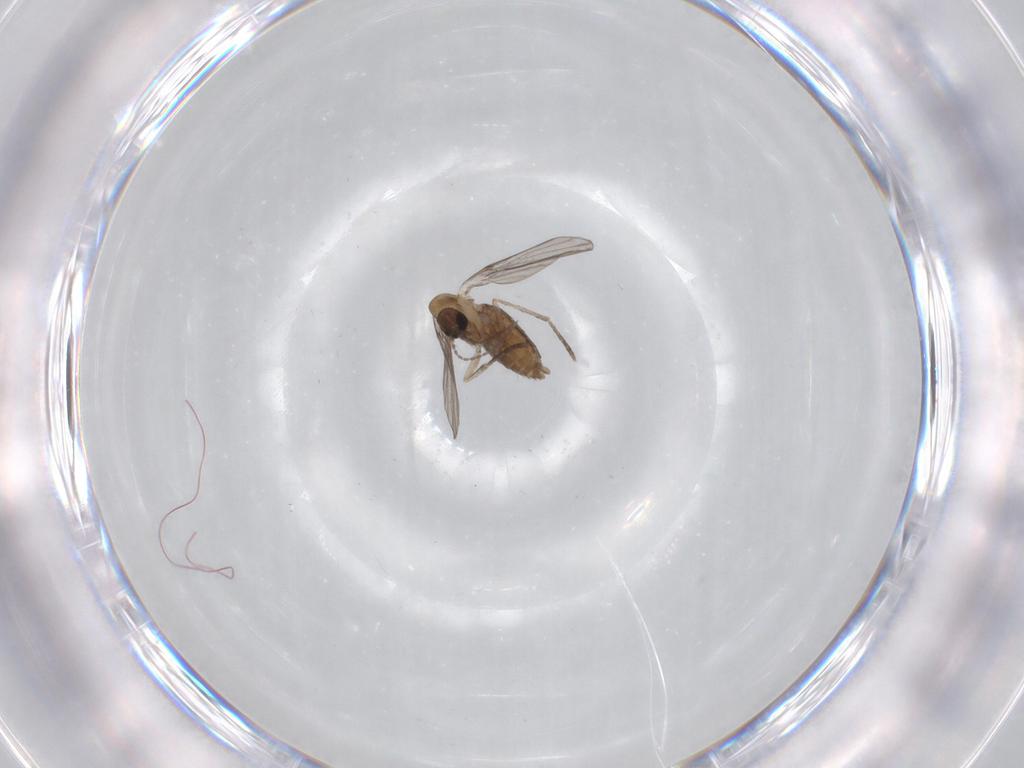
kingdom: Animalia
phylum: Arthropoda
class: Insecta
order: Diptera
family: Psychodidae
